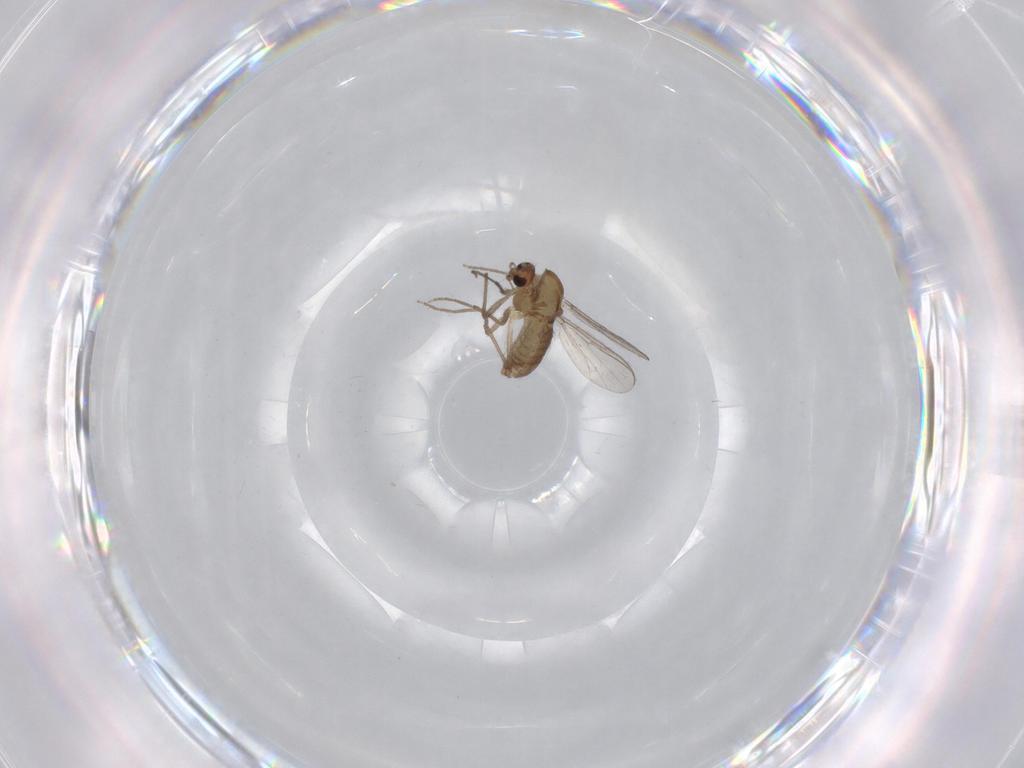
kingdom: Animalia
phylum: Arthropoda
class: Insecta
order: Diptera
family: Chironomidae
